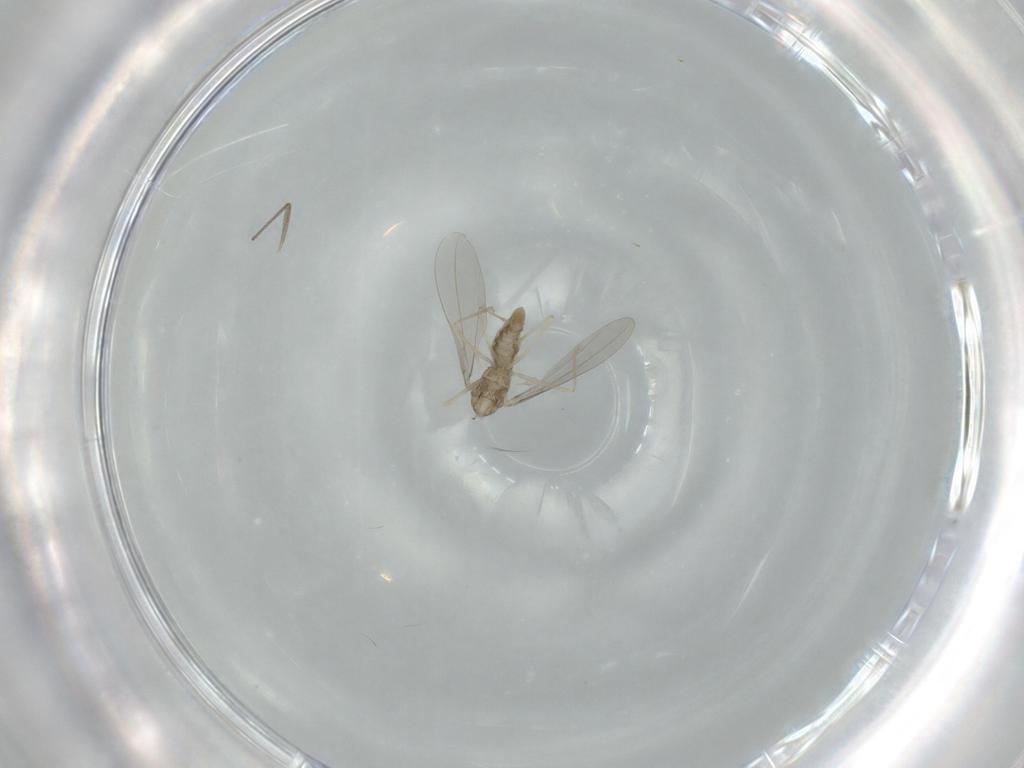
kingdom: Animalia
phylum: Arthropoda
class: Insecta
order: Diptera
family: Cecidomyiidae
